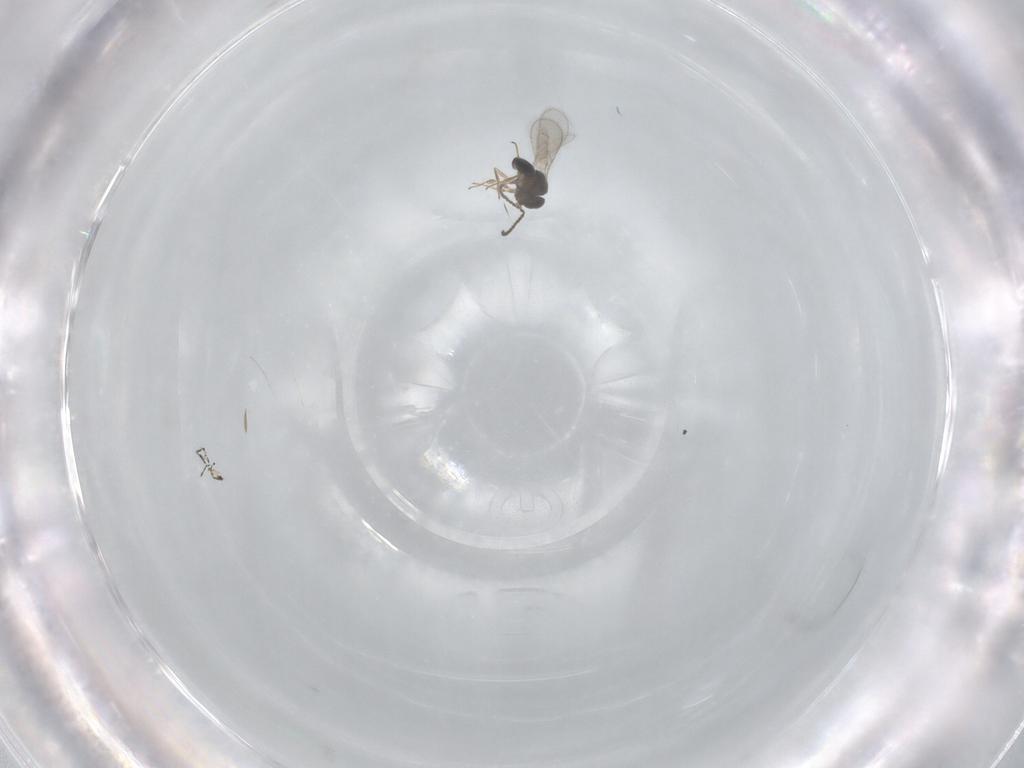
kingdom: Animalia
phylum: Arthropoda
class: Insecta
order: Hymenoptera
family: Scelionidae
